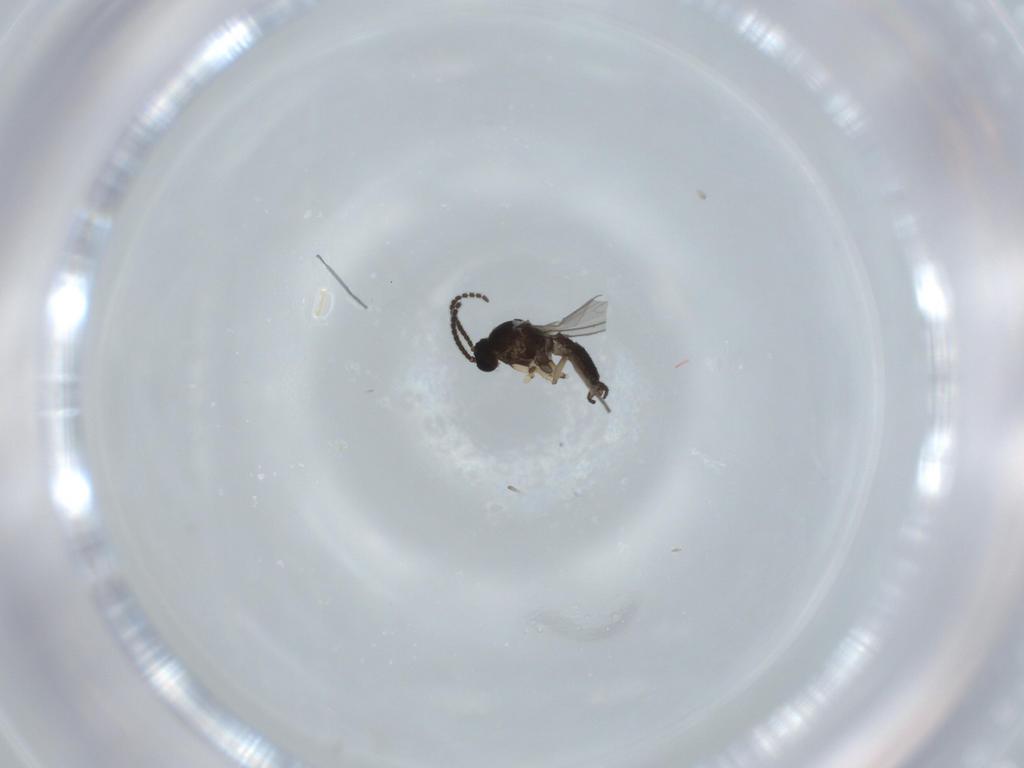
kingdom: Animalia
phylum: Arthropoda
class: Insecta
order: Diptera
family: Sciaridae
